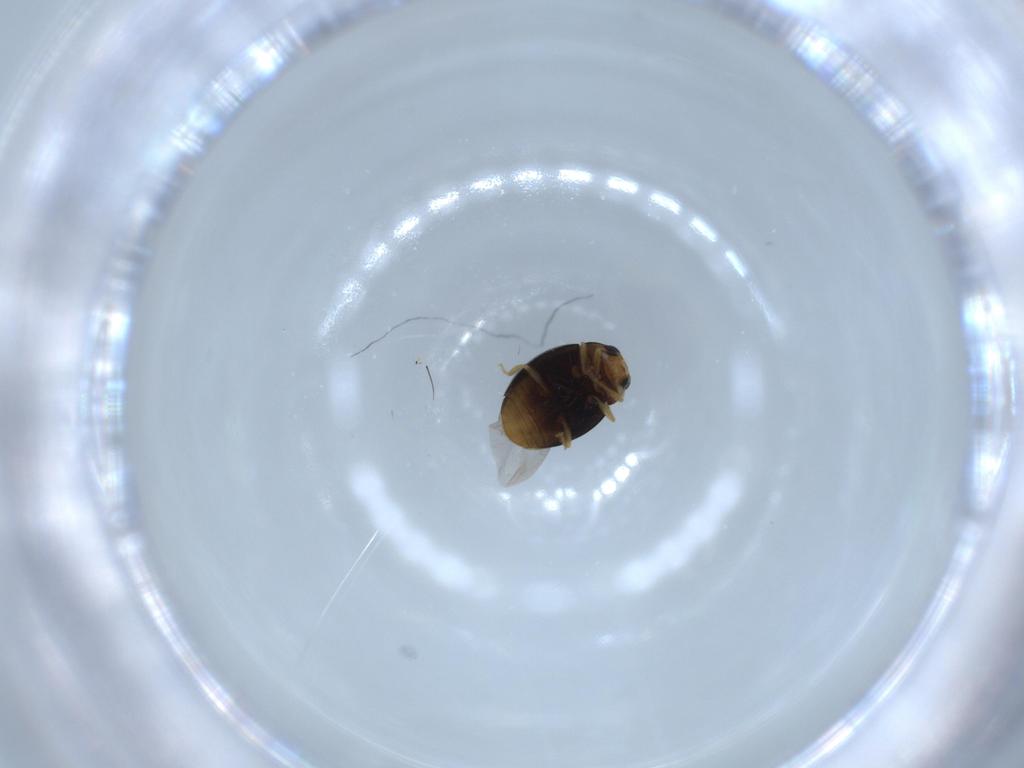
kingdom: Animalia
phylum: Arthropoda
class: Insecta
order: Coleoptera
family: Coccinellidae
